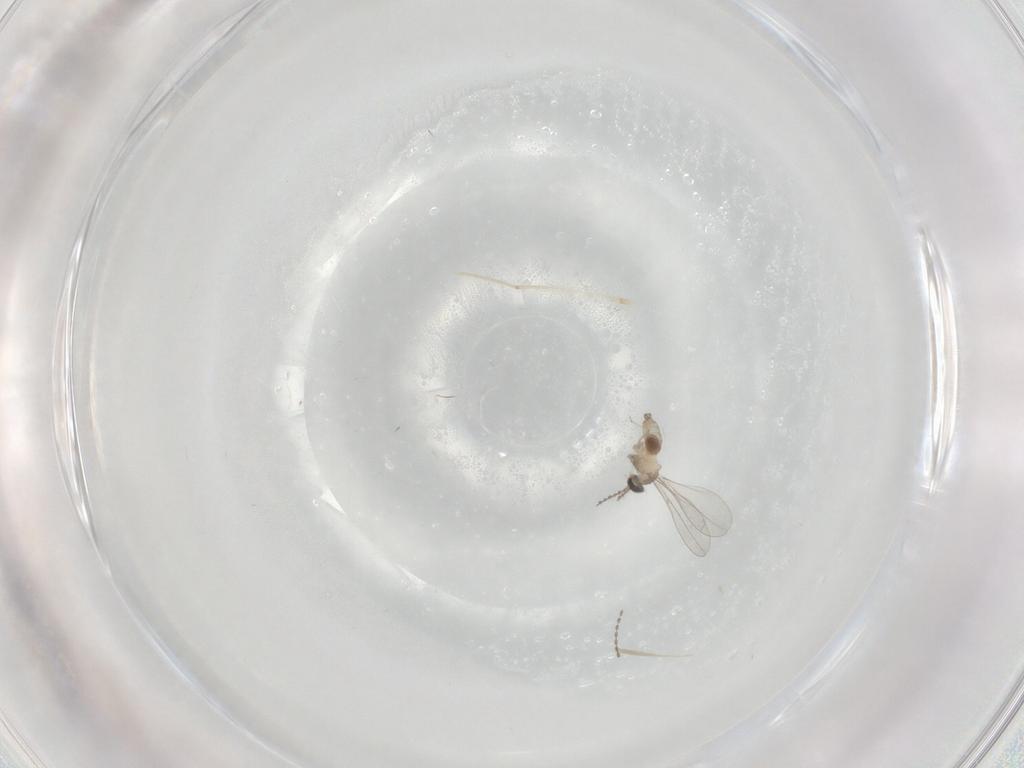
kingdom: Animalia
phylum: Arthropoda
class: Insecta
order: Diptera
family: Cecidomyiidae
